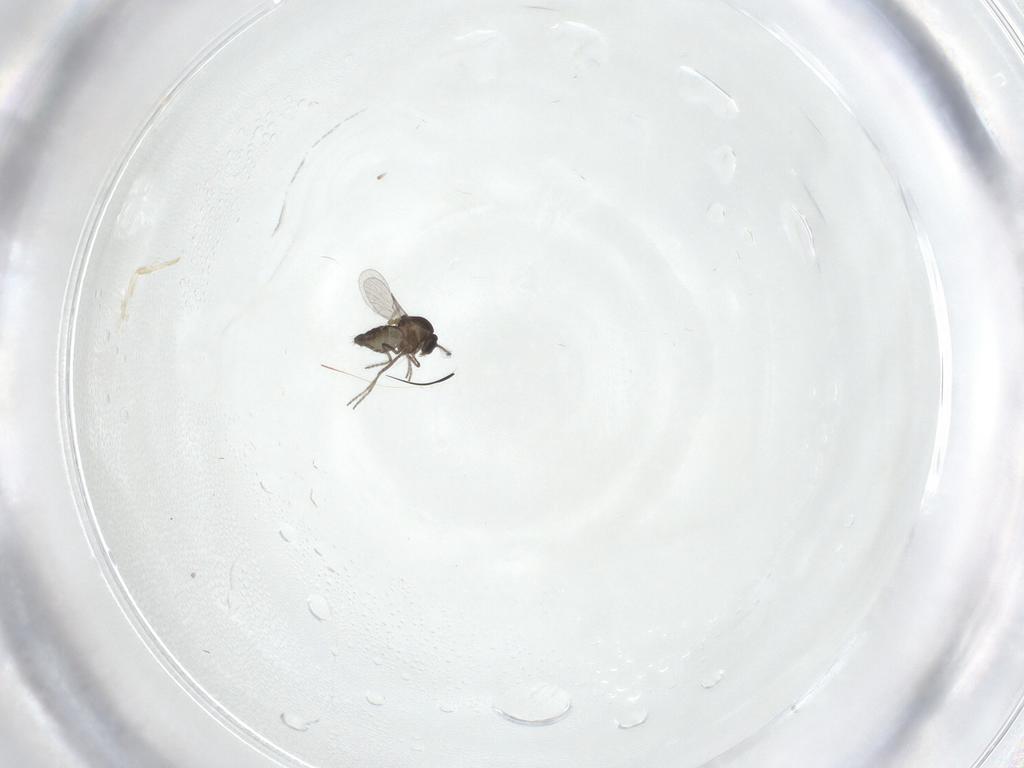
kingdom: Animalia
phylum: Arthropoda
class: Insecta
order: Diptera
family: Ceratopogonidae
